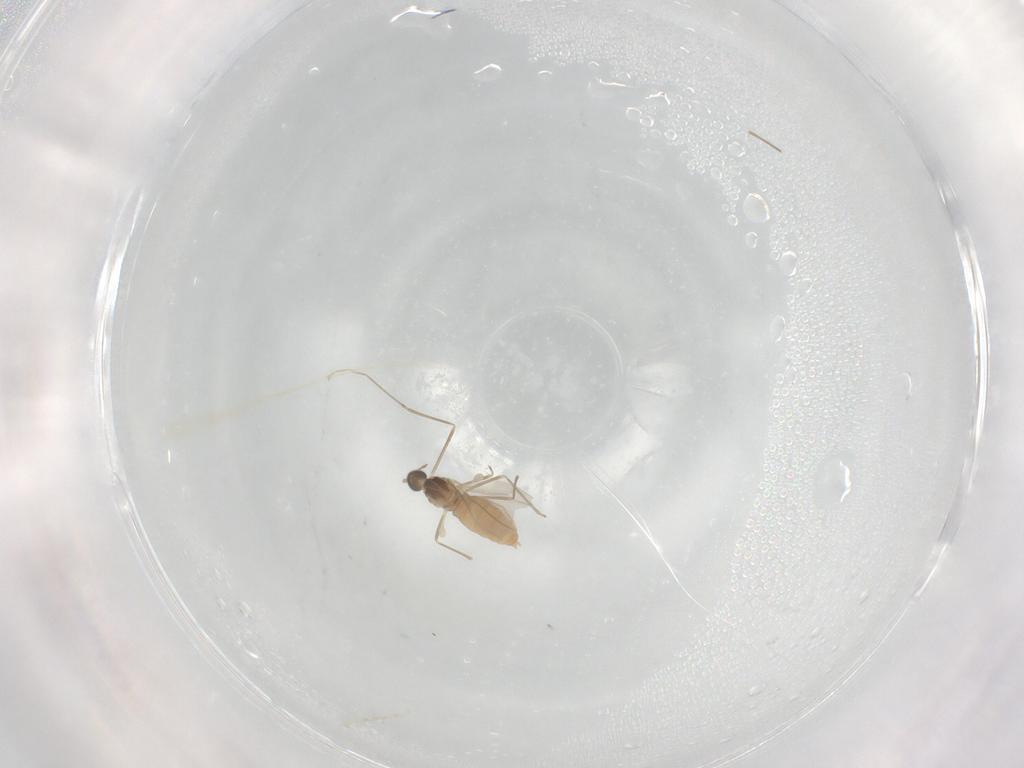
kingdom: Animalia
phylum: Arthropoda
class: Insecta
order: Diptera
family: Cecidomyiidae
